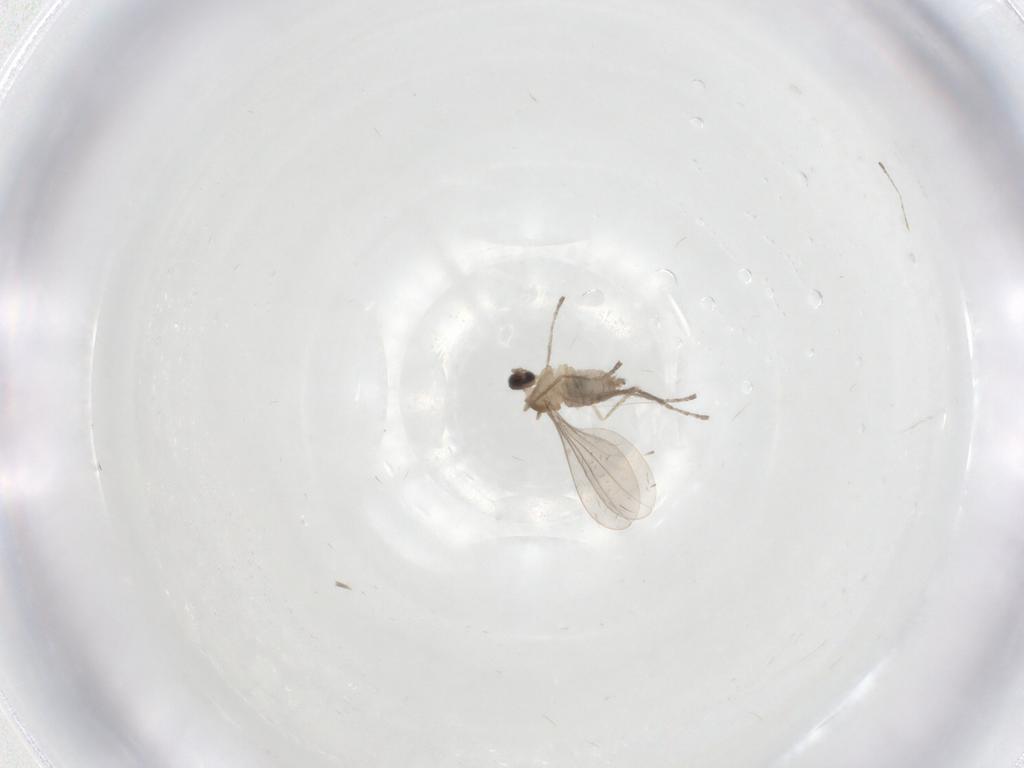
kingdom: Animalia
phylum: Arthropoda
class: Insecta
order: Diptera
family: Cecidomyiidae
